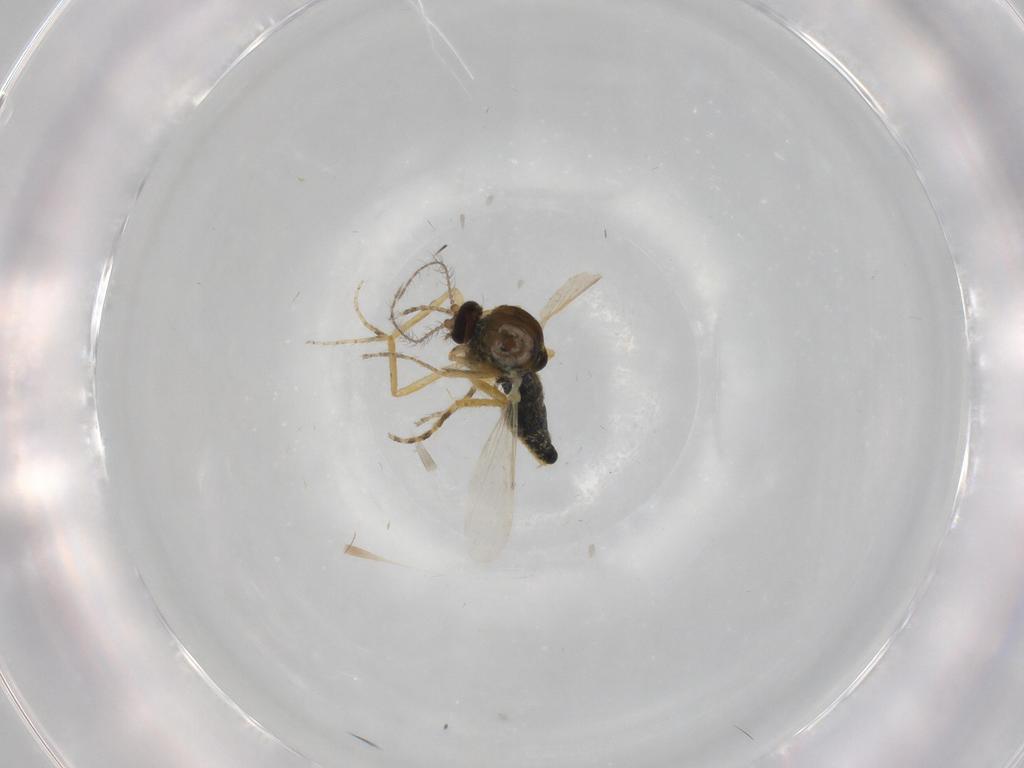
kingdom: Animalia
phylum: Arthropoda
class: Insecta
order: Diptera
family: Ceratopogonidae
